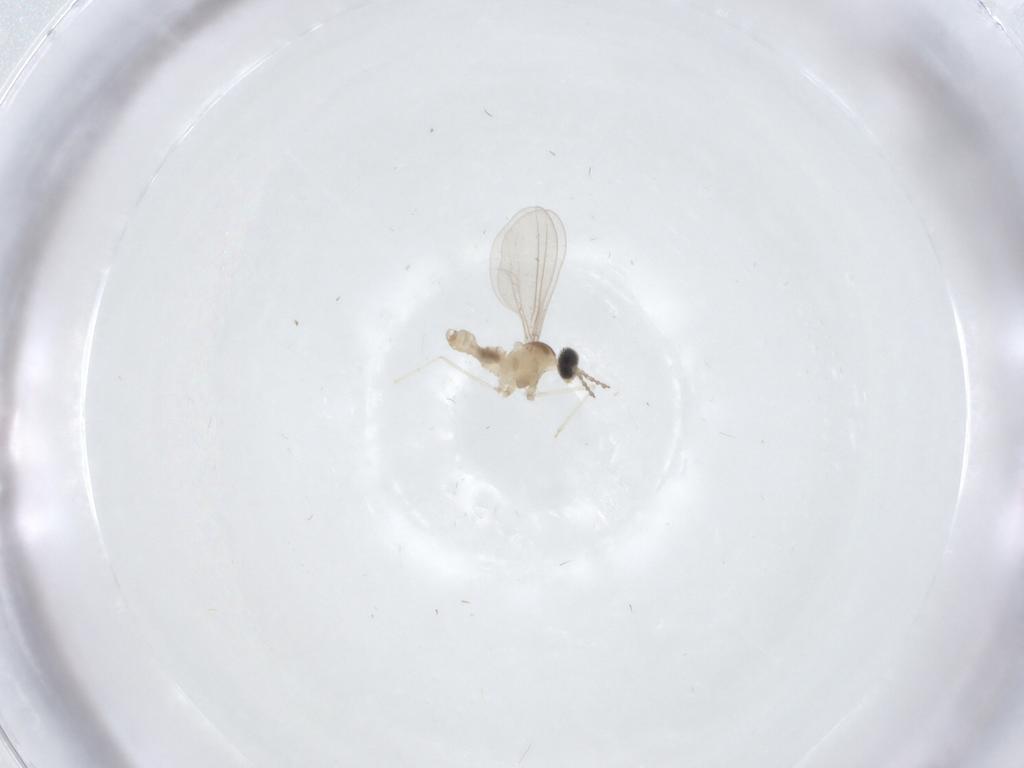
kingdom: Animalia
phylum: Arthropoda
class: Insecta
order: Diptera
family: Cecidomyiidae
